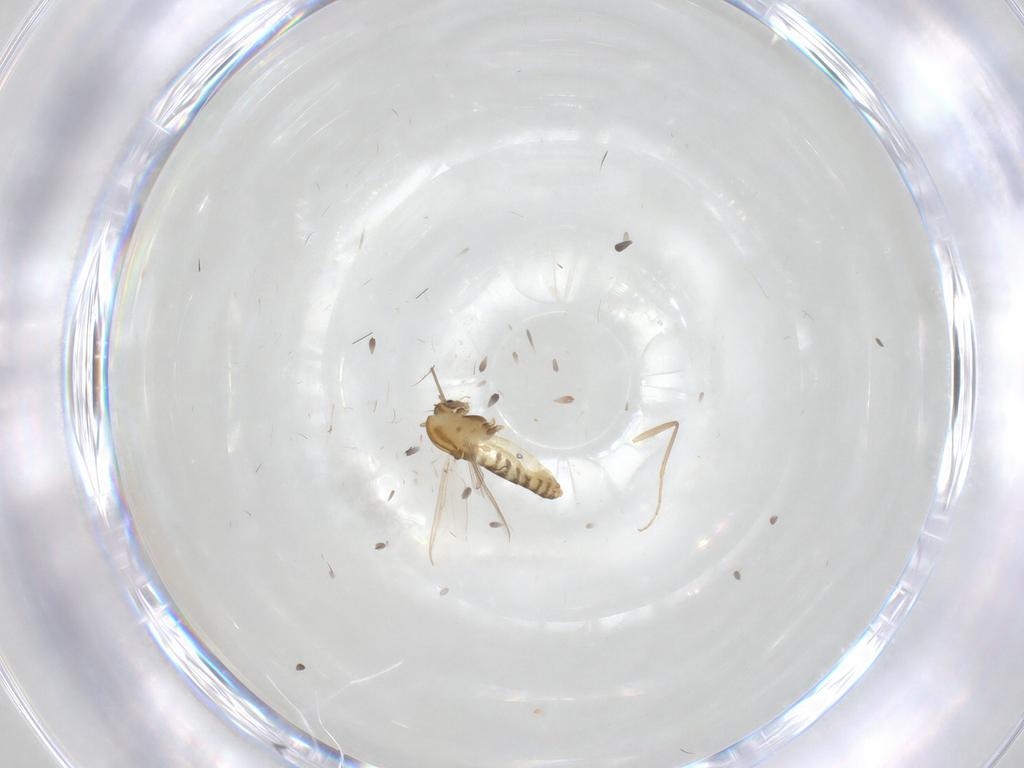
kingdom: Animalia
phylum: Arthropoda
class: Insecta
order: Diptera
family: Chironomidae
